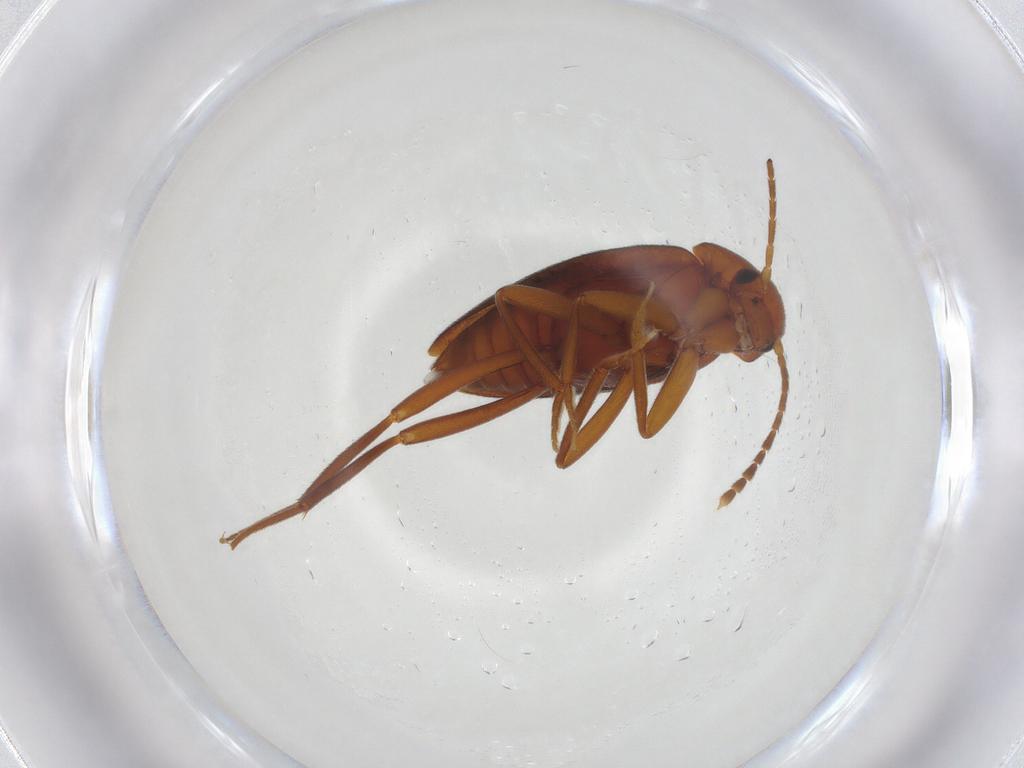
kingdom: Animalia
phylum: Arthropoda
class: Insecta
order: Coleoptera
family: Leiodidae
